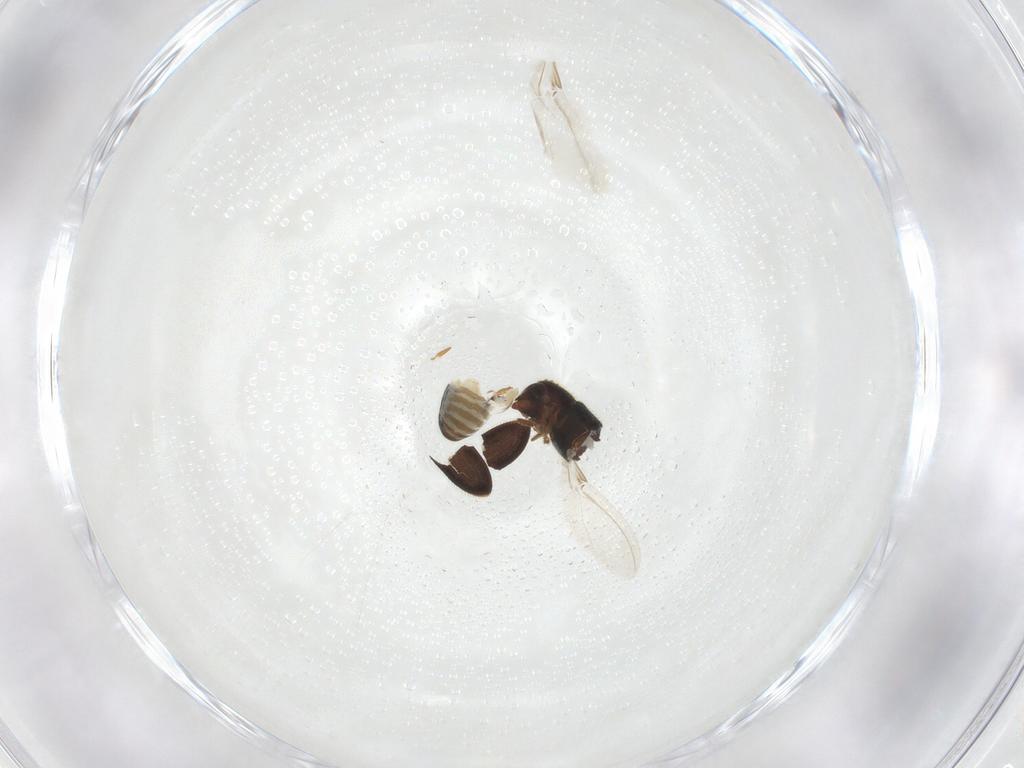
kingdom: Animalia
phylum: Arthropoda
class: Insecta
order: Coleoptera
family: Curculionidae
